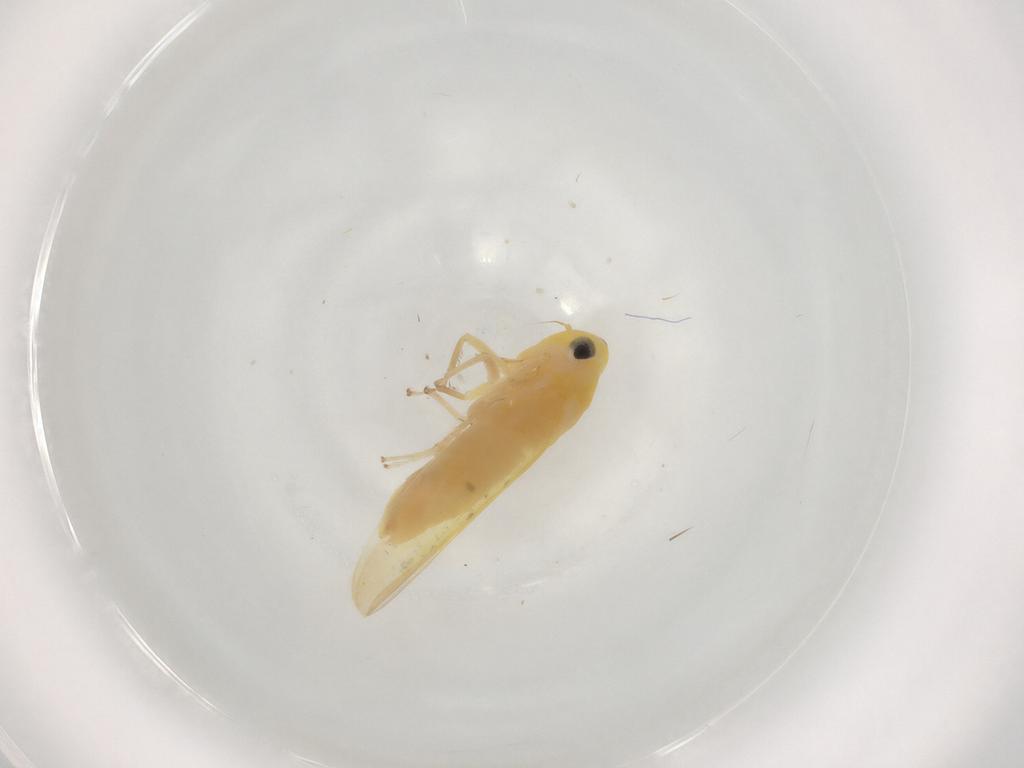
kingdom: Animalia
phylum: Arthropoda
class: Insecta
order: Hemiptera
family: Cicadellidae
